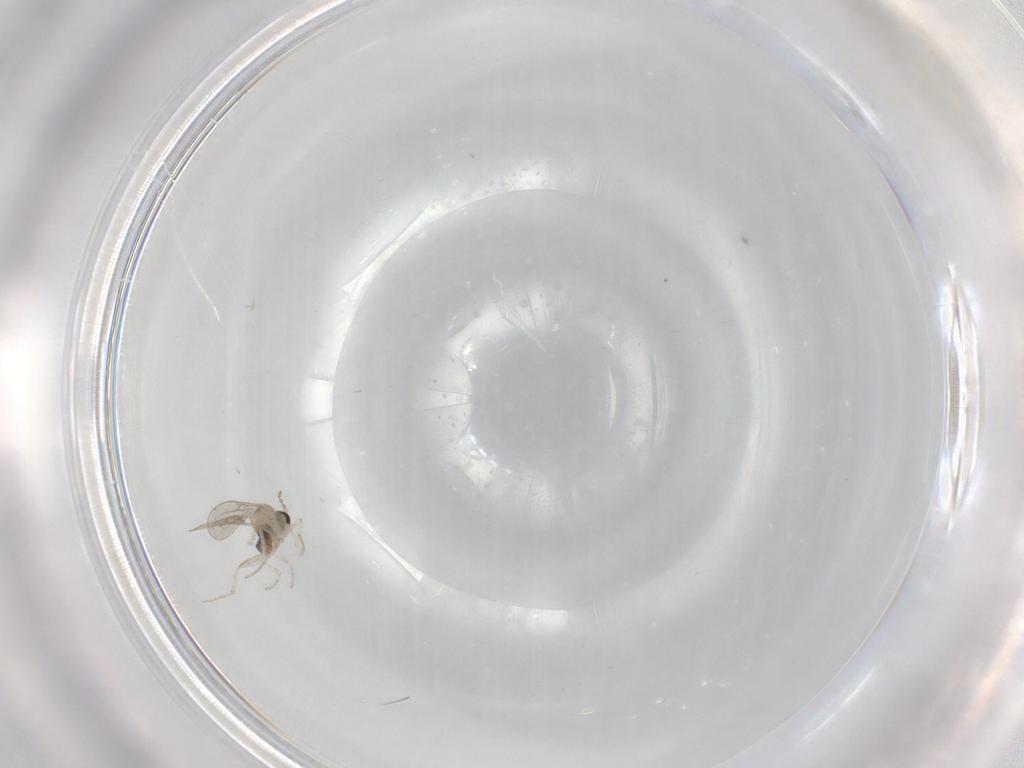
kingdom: Animalia
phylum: Arthropoda
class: Insecta
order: Diptera
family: Cecidomyiidae
